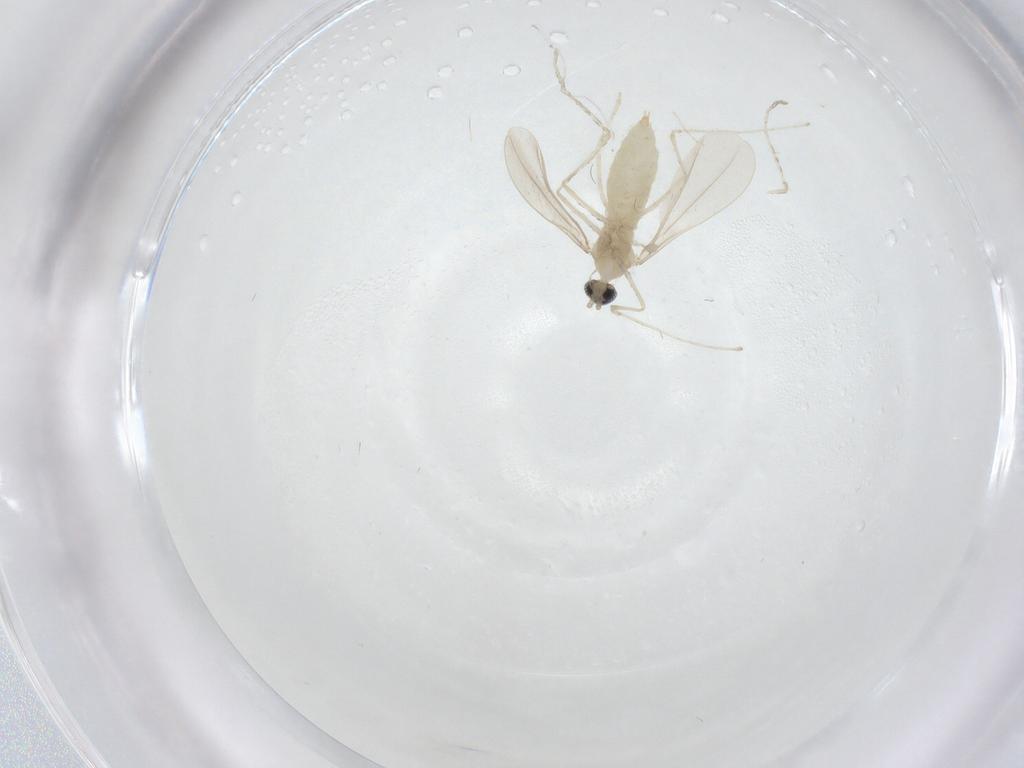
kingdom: Animalia
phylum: Arthropoda
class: Insecta
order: Diptera
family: Cecidomyiidae
